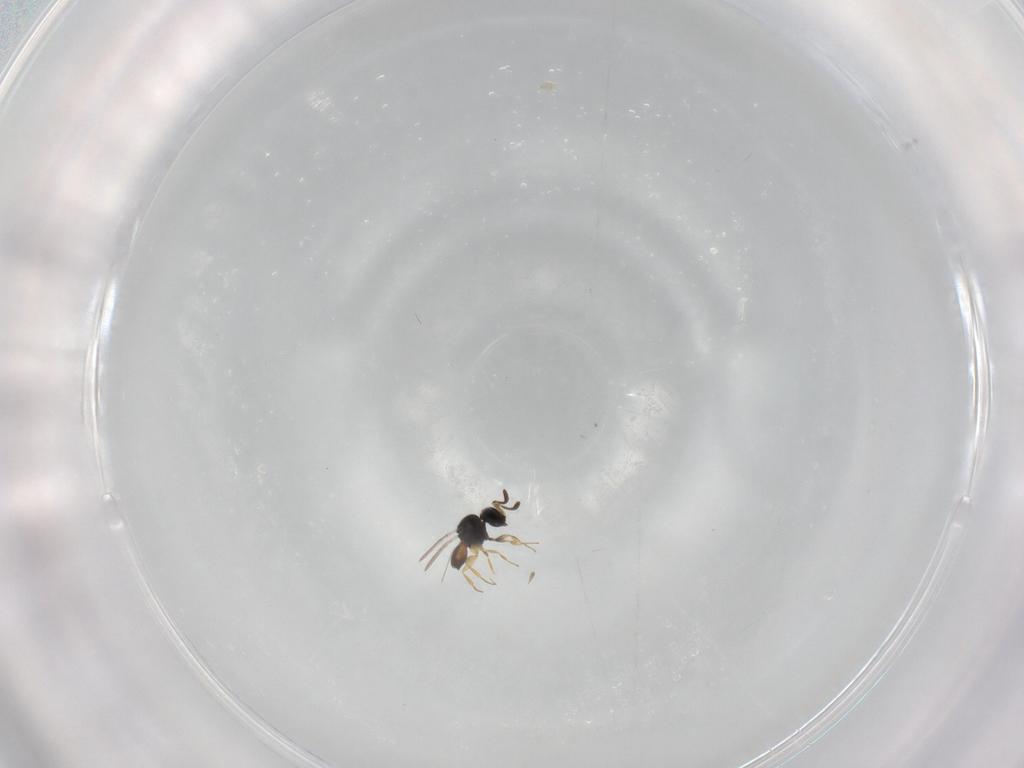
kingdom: Animalia
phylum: Arthropoda
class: Insecta
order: Hymenoptera
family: Scelionidae
